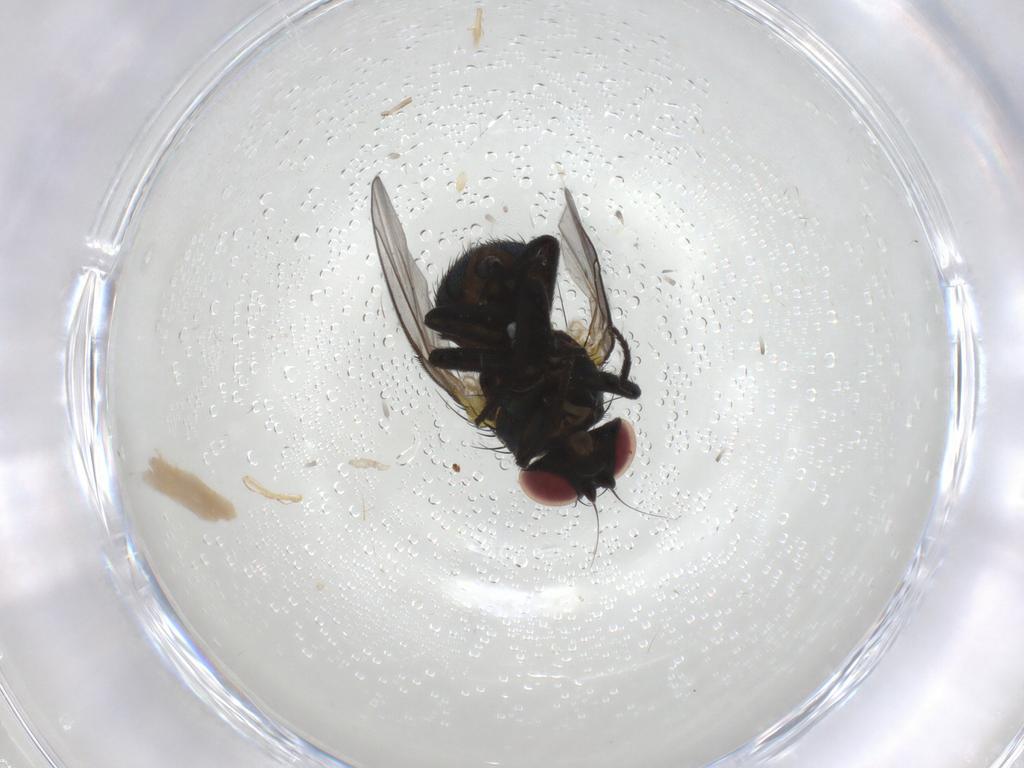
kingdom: Animalia
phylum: Arthropoda
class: Insecta
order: Diptera
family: Agromyzidae
